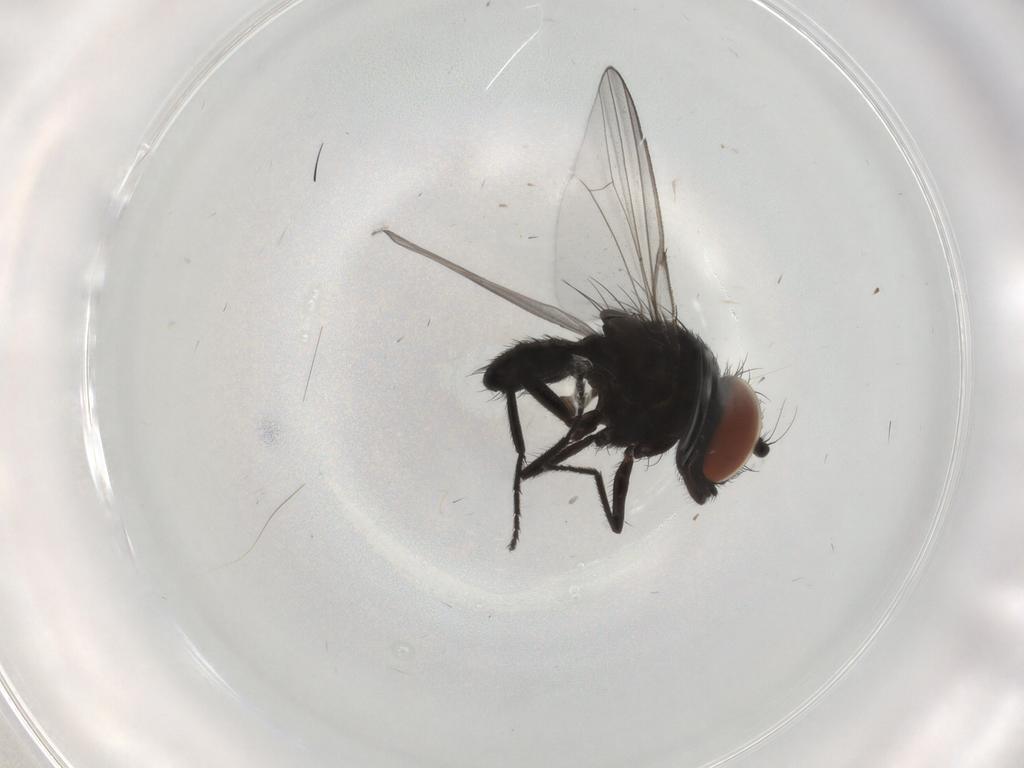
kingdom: Animalia
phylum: Arthropoda
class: Insecta
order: Diptera
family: Milichiidae
